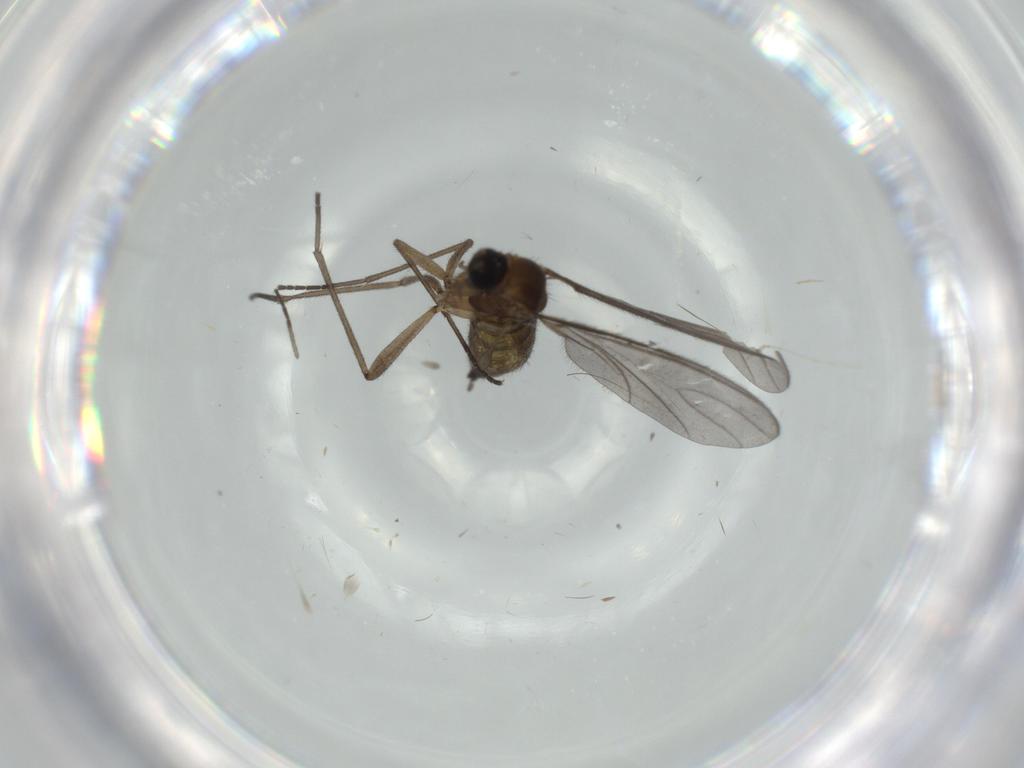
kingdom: Animalia
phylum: Arthropoda
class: Insecta
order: Diptera
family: Sciaridae
